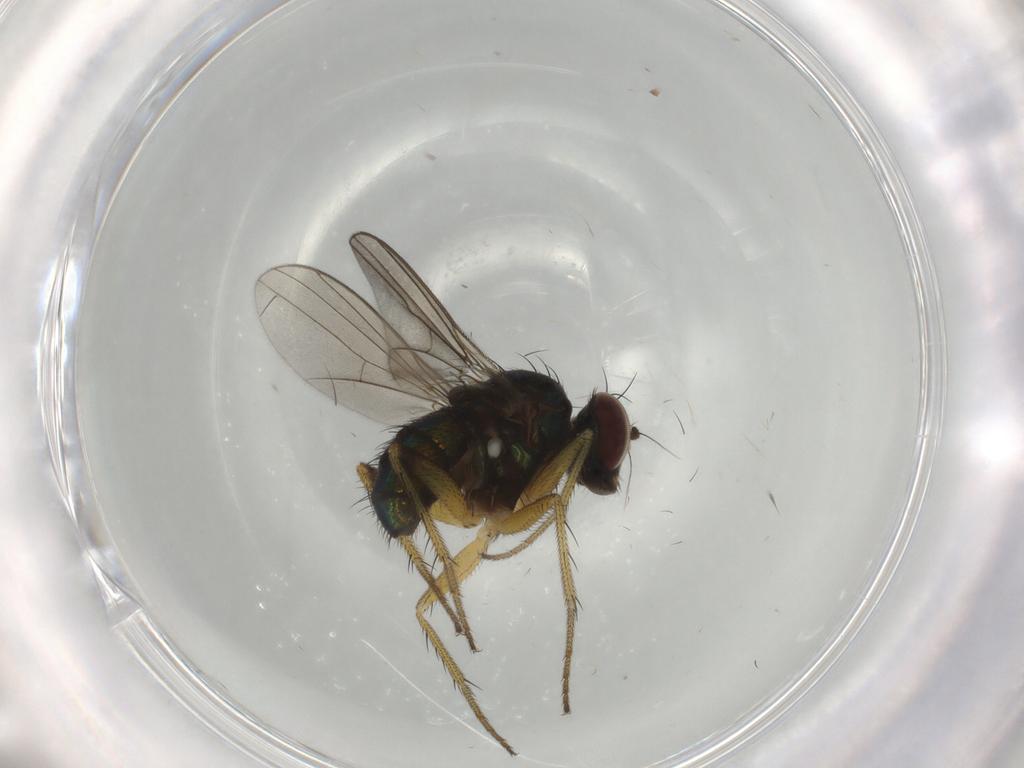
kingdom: Animalia
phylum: Arthropoda
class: Insecta
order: Diptera
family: Dolichopodidae
